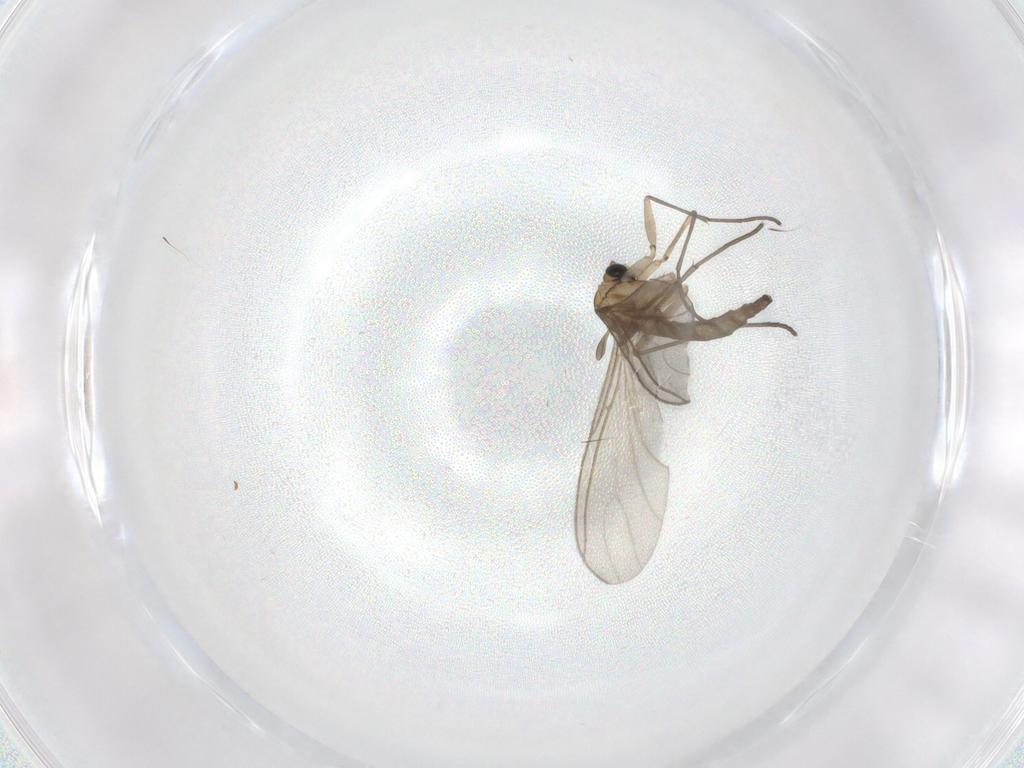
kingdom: Animalia
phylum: Arthropoda
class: Insecta
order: Diptera
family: Sciaridae
